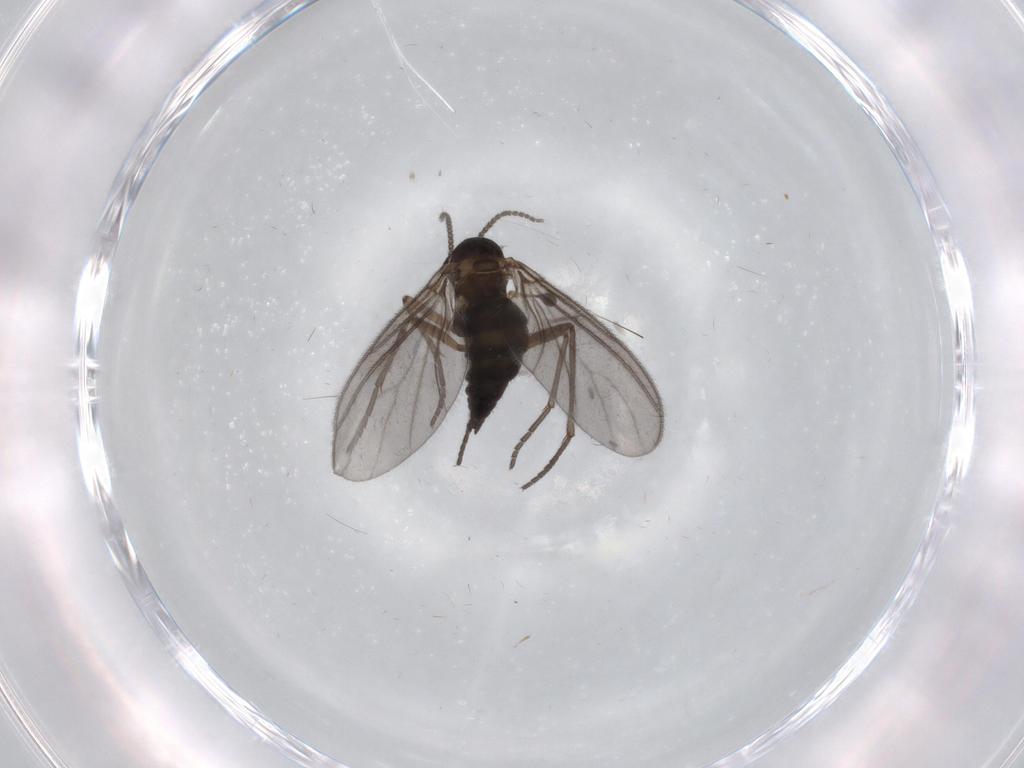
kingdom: Animalia
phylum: Arthropoda
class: Insecta
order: Diptera
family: Sciaridae
